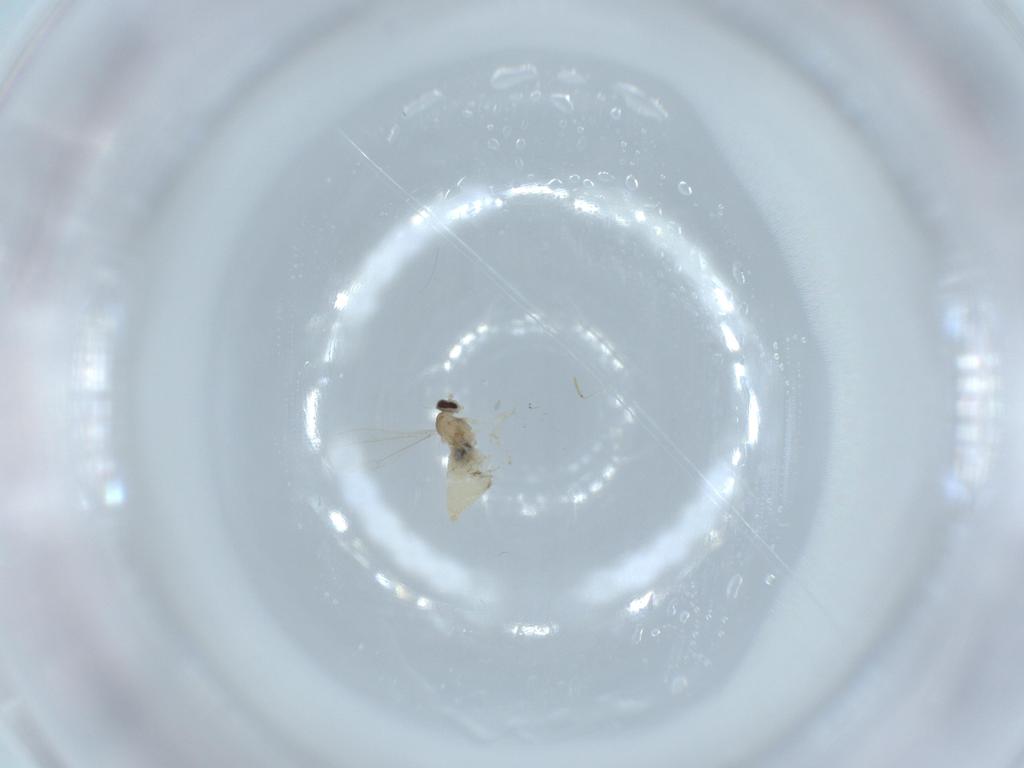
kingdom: Animalia
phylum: Arthropoda
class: Insecta
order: Diptera
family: Cecidomyiidae
